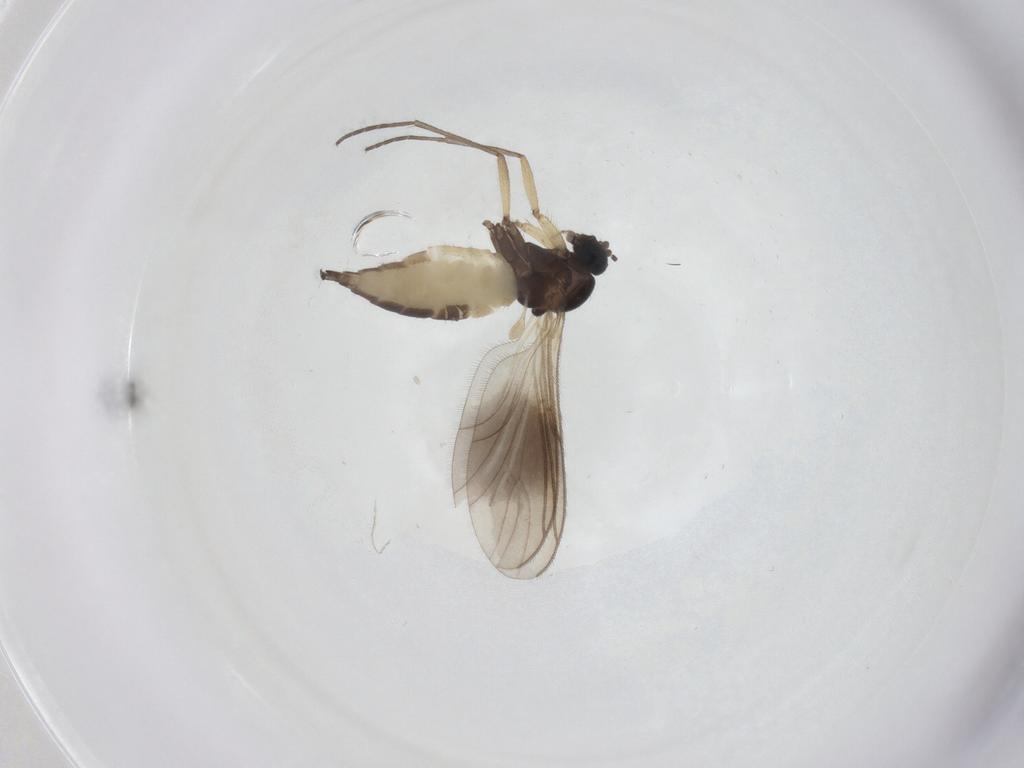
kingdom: Animalia
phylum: Arthropoda
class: Insecta
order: Diptera
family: Sciaridae
